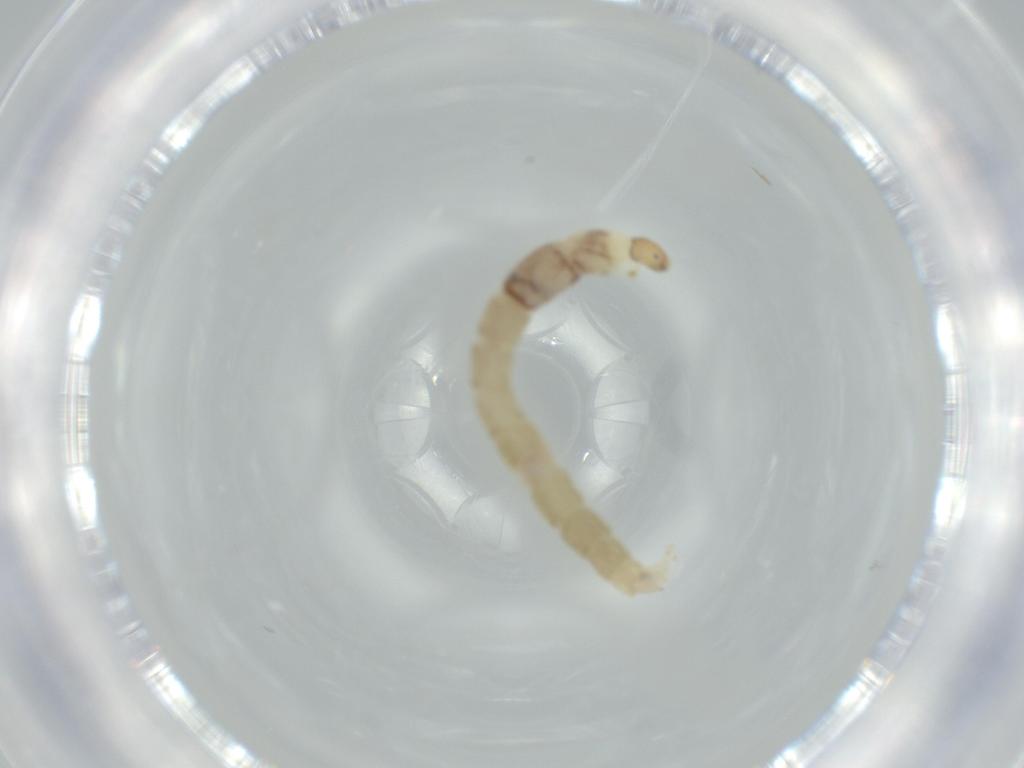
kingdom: Animalia
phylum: Arthropoda
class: Insecta
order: Diptera
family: Chironomidae
